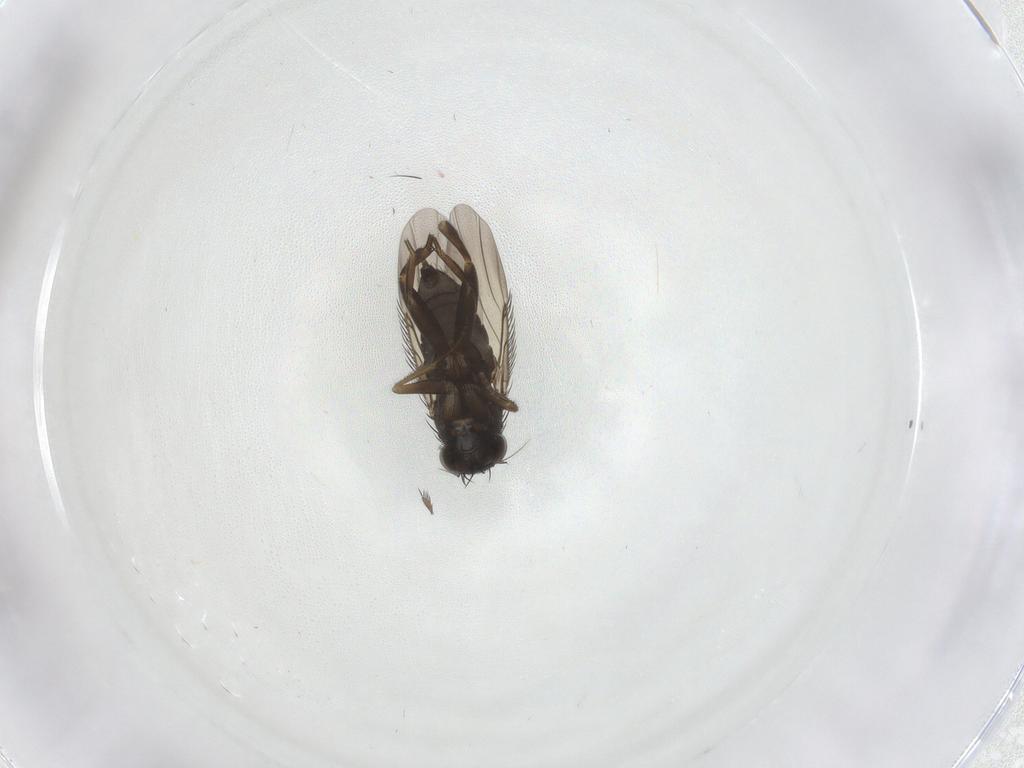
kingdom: Animalia
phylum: Arthropoda
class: Insecta
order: Diptera
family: Phoridae
